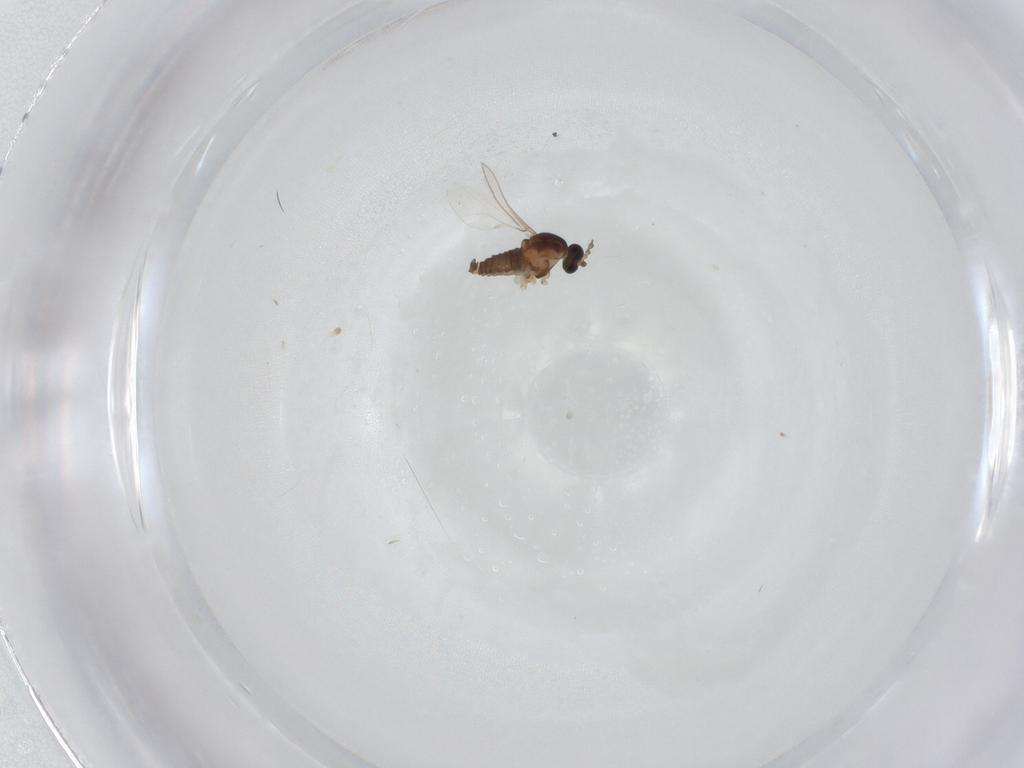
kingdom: Animalia
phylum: Arthropoda
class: Insecta
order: Diptera
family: Cecidomyiidae
